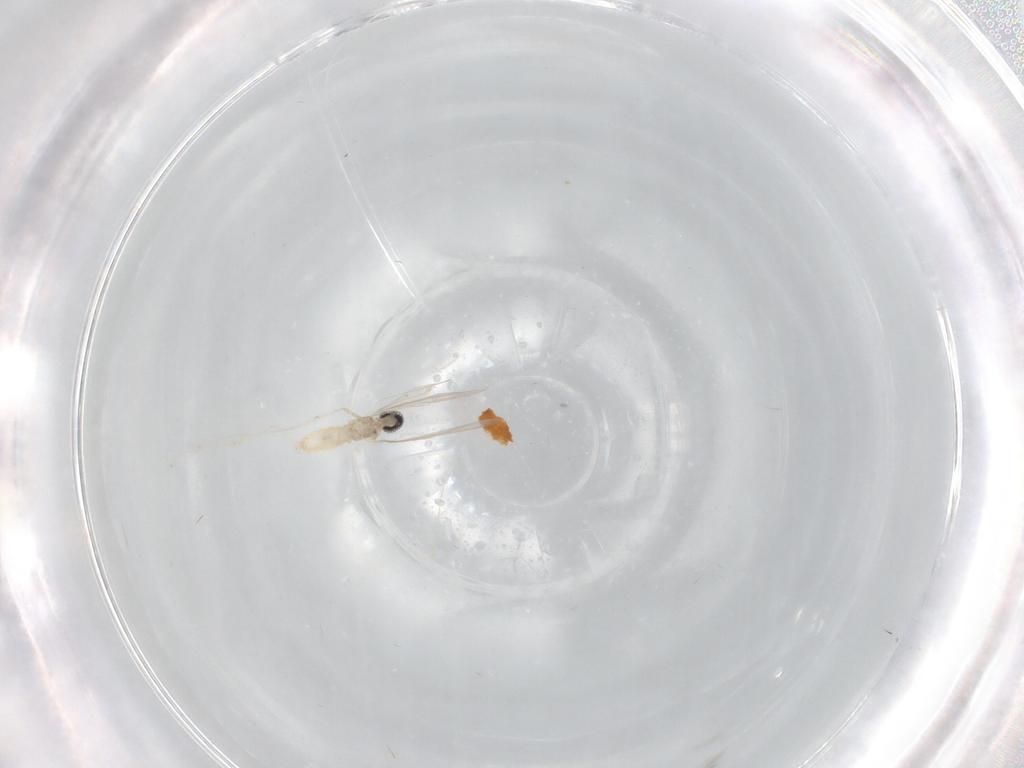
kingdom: Animalia
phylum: Arthropoda
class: Insecta
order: Diptera
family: Cecidomyiidae
